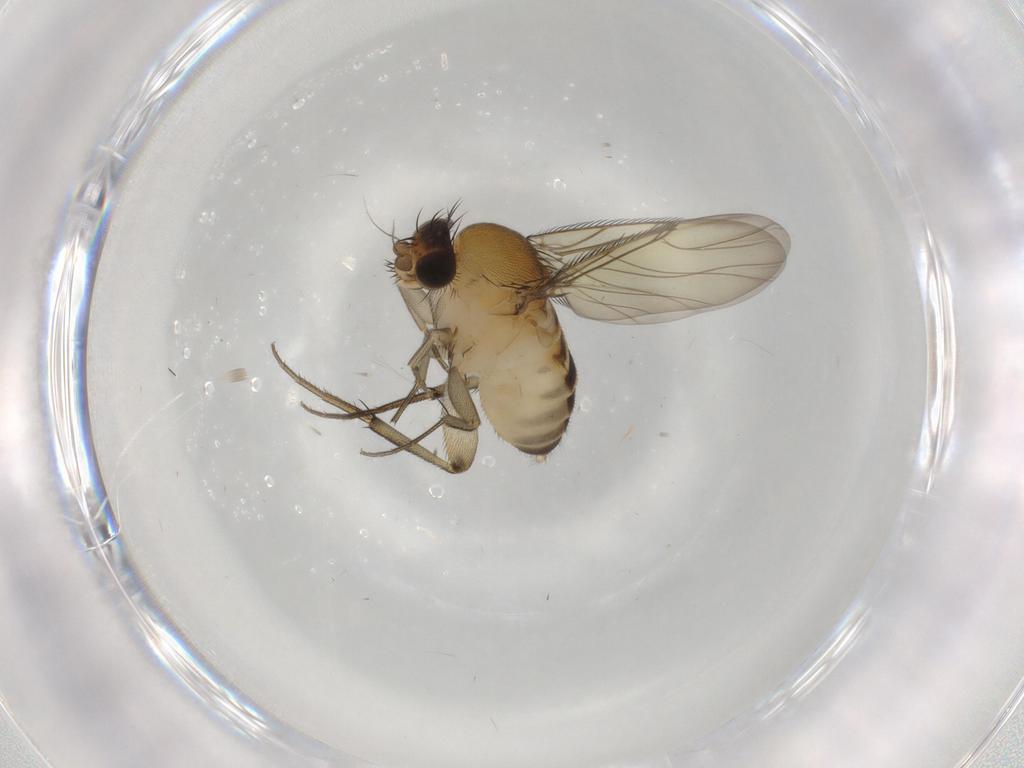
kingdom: Animalia
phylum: Arthropoda
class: Insecta
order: Diptera
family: Phoridae
